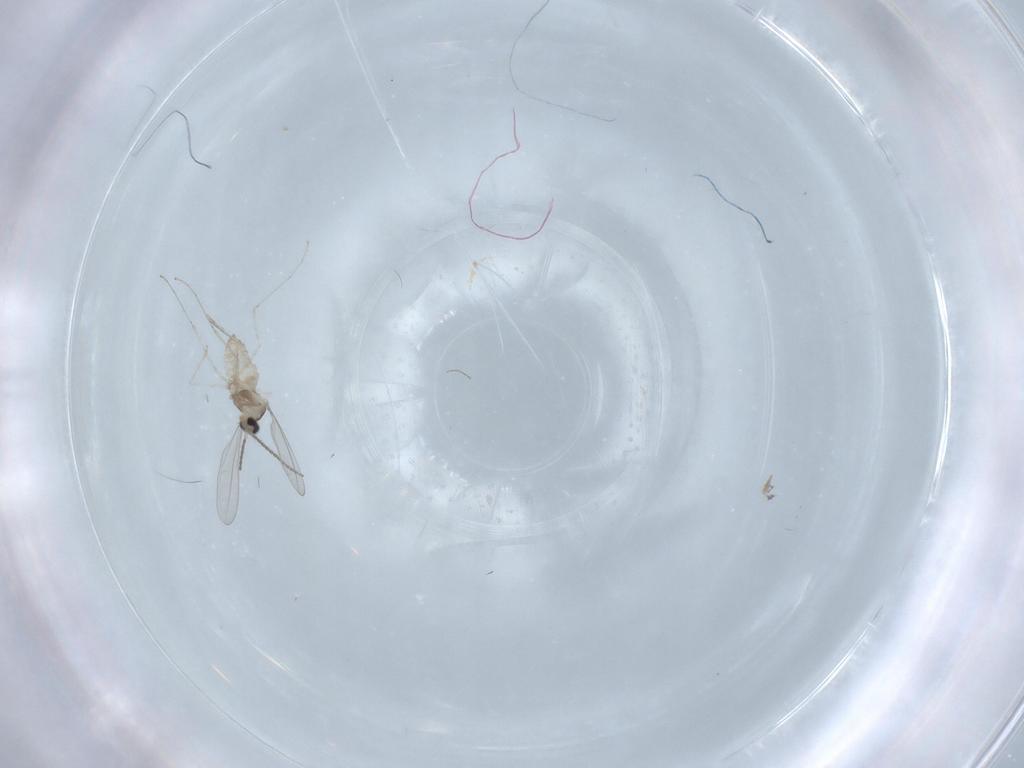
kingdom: Animalia
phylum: Arthropoda
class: Insecta
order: Diptera
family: Cecidomyiidae
